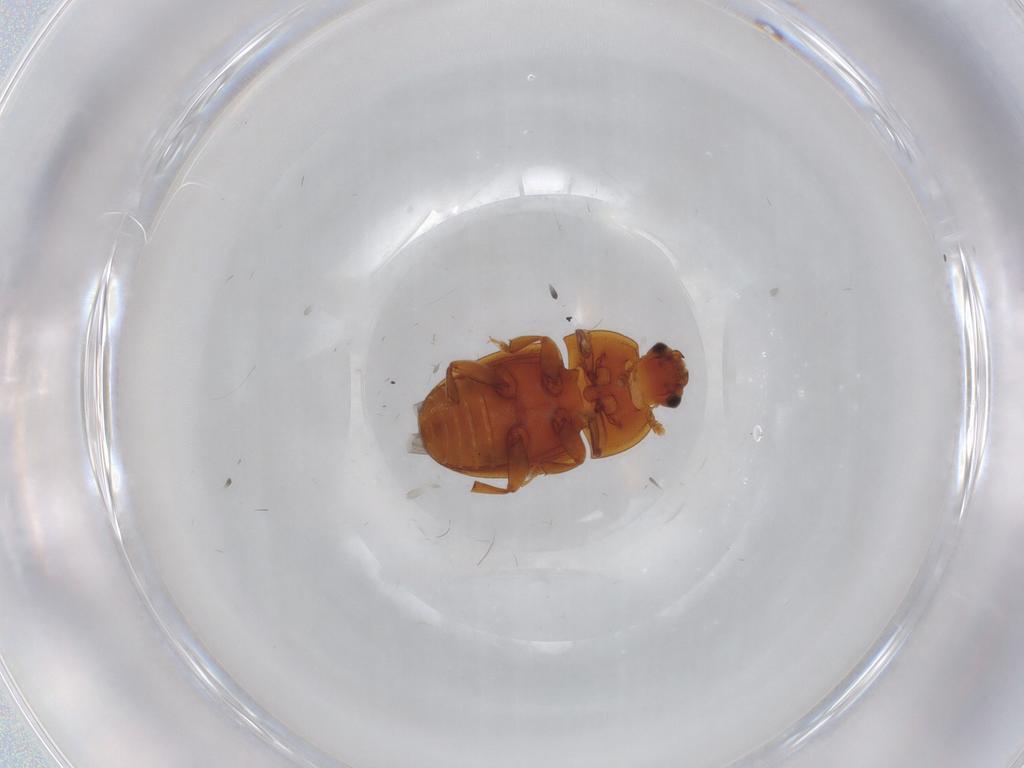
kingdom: Animalia
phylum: Arthropoda
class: Insecta
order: Coleoptera
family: Nitidulidae
